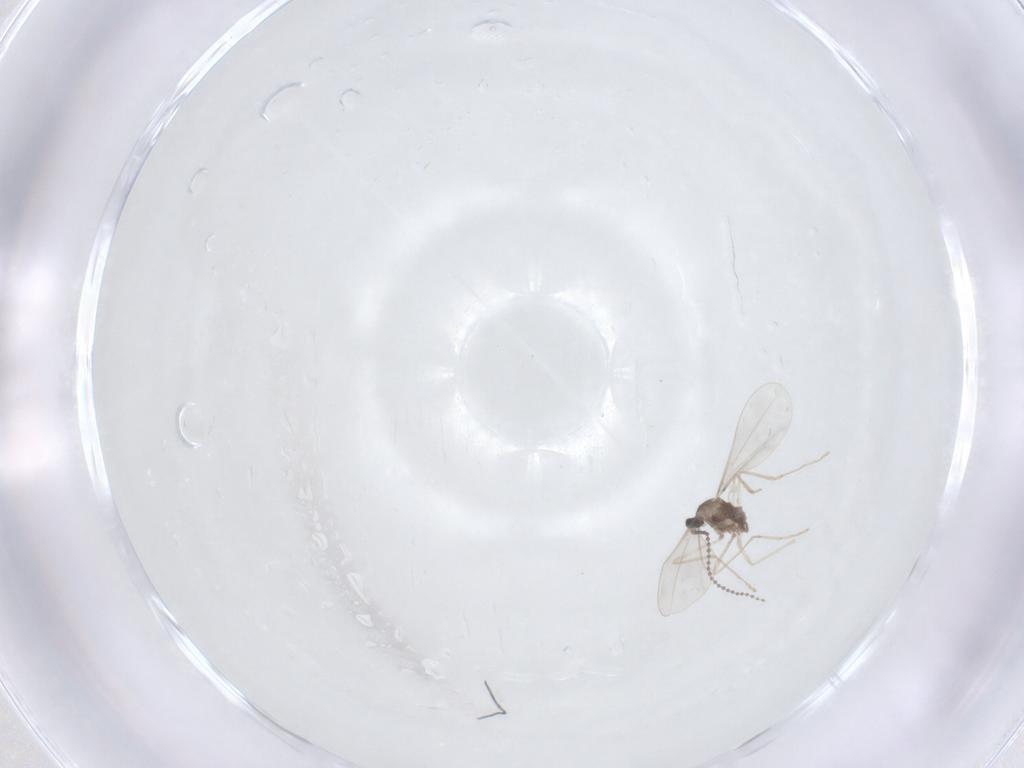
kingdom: Animalia
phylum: Arthropoda
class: Insecta
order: Diptera
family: Cecidomyiidae
